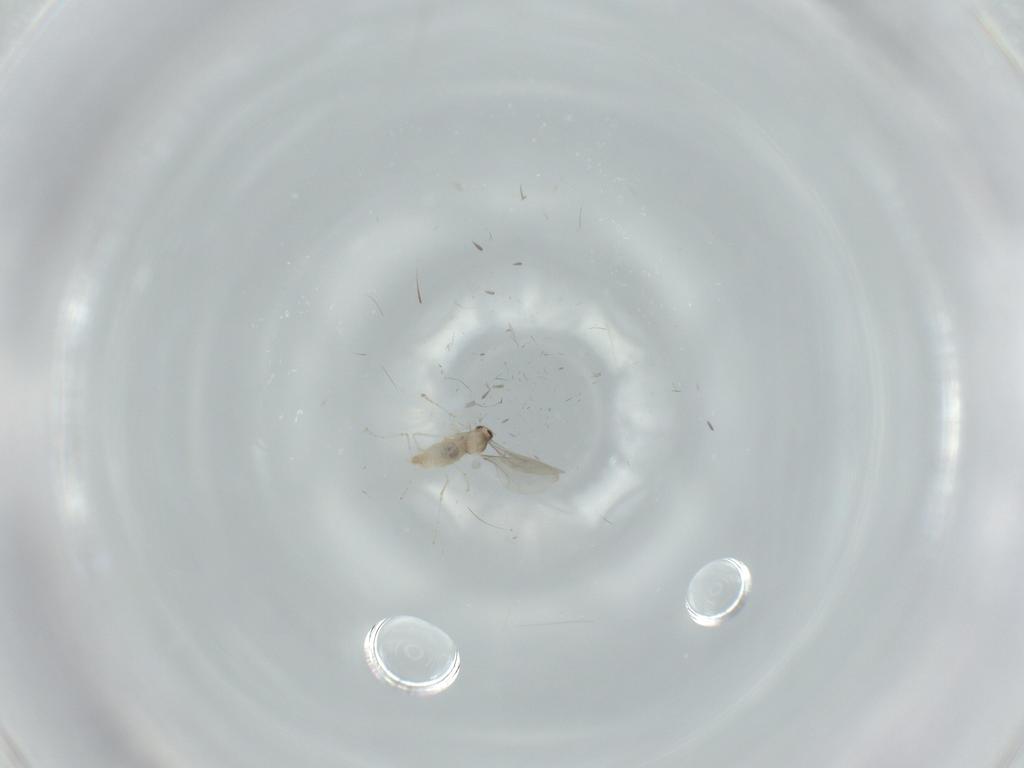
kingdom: Animalia
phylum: Arthropoda
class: Insecta
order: Diptera
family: Cecidomyiidae
